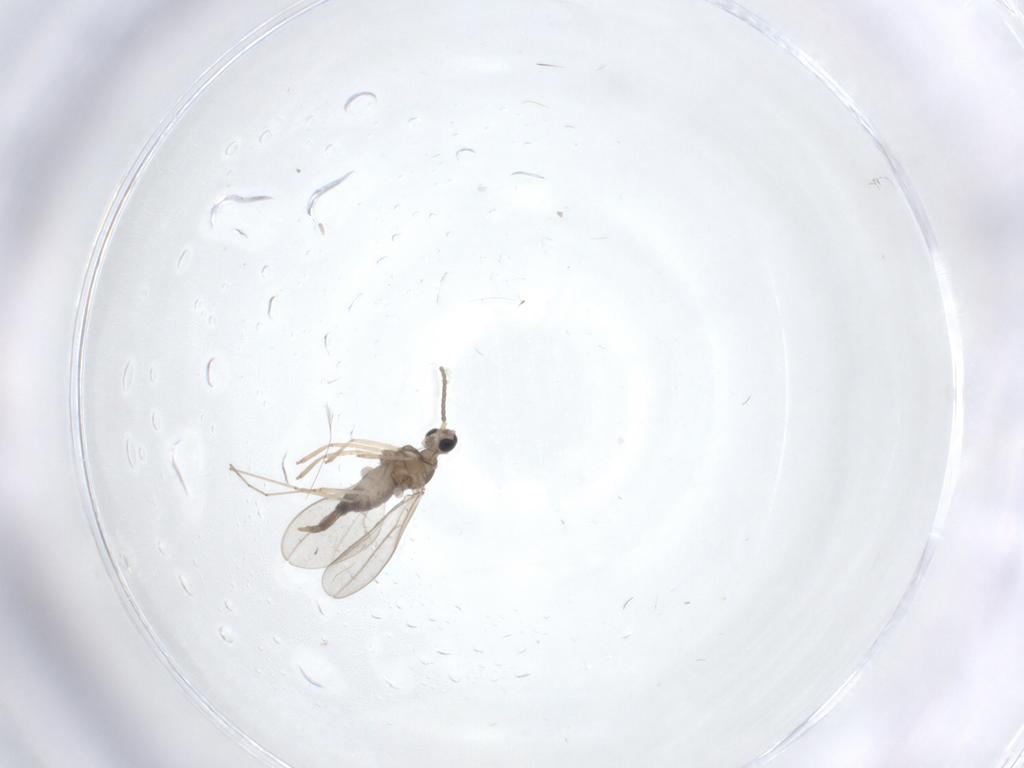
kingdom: Animalia
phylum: Arthropoda
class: Insecta
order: Diptera
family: Cecidomyiidae
